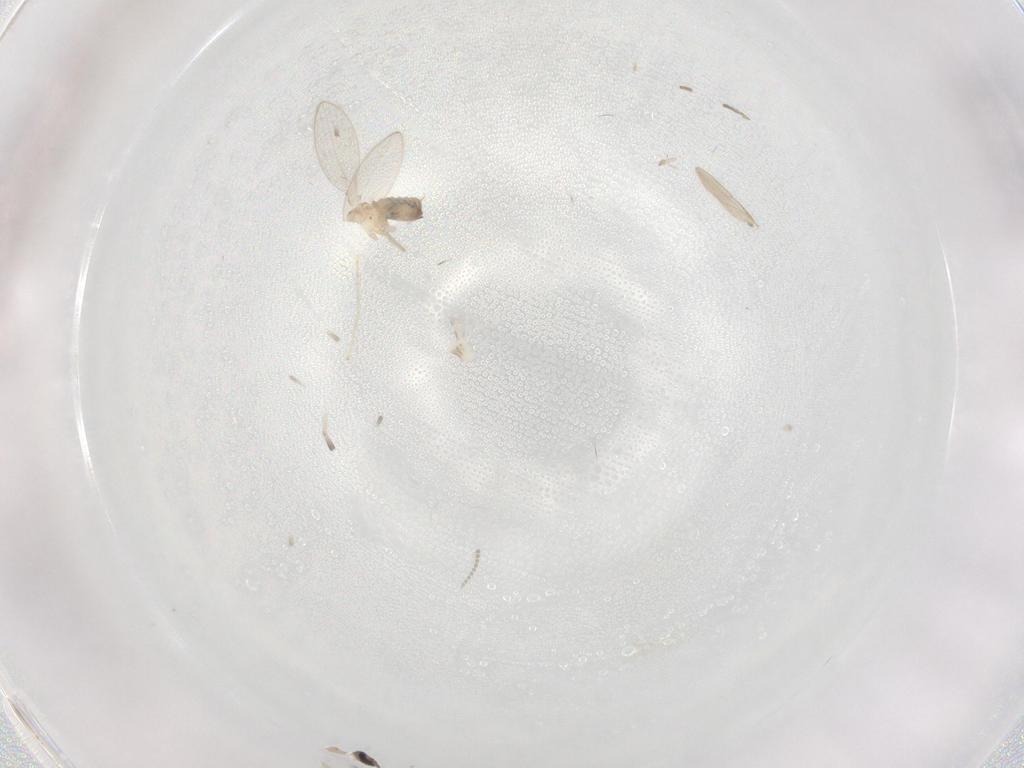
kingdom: Animalia
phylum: Arthropoda
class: Insecta
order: Diptera
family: Psychodidae
